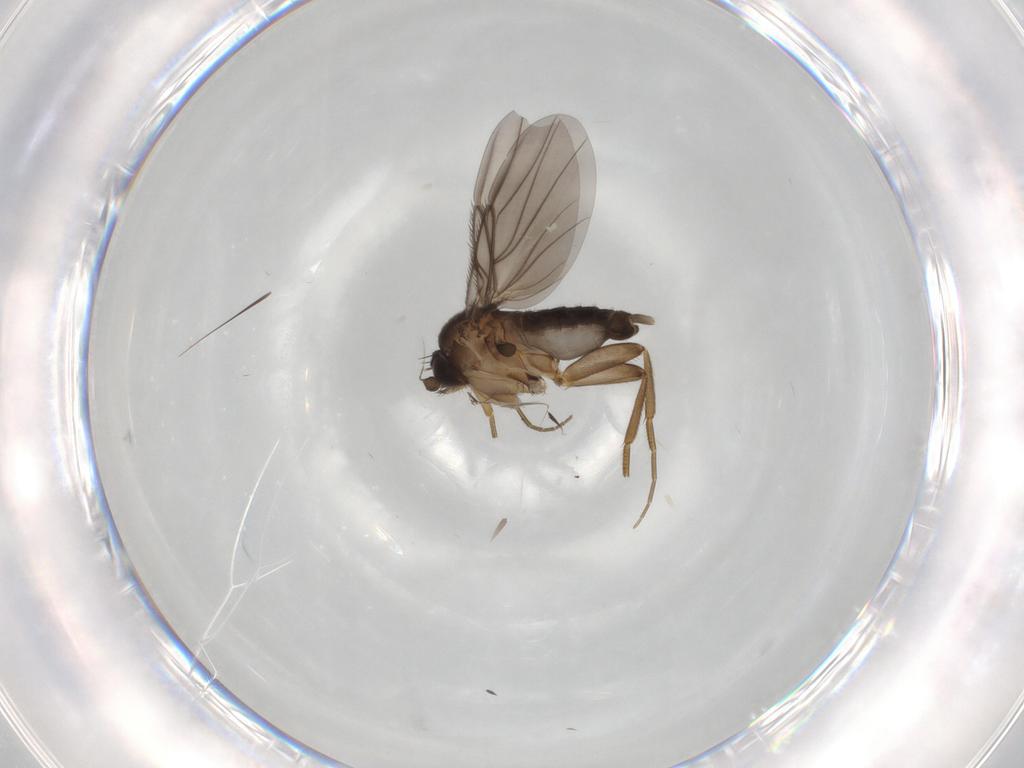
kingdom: Animalia
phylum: Arthropoda
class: Insecta
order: Diptera
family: Phoridae
